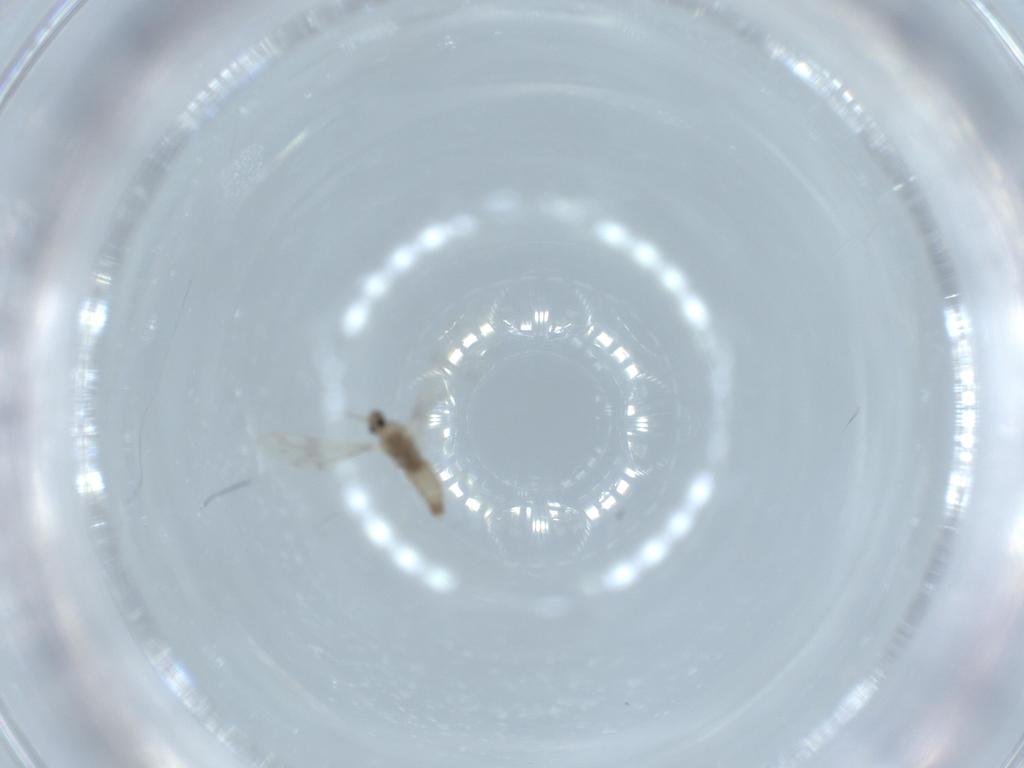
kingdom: Animalia
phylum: Arthropoda
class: Insecta
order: Diptera
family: Cecidomyiidae
